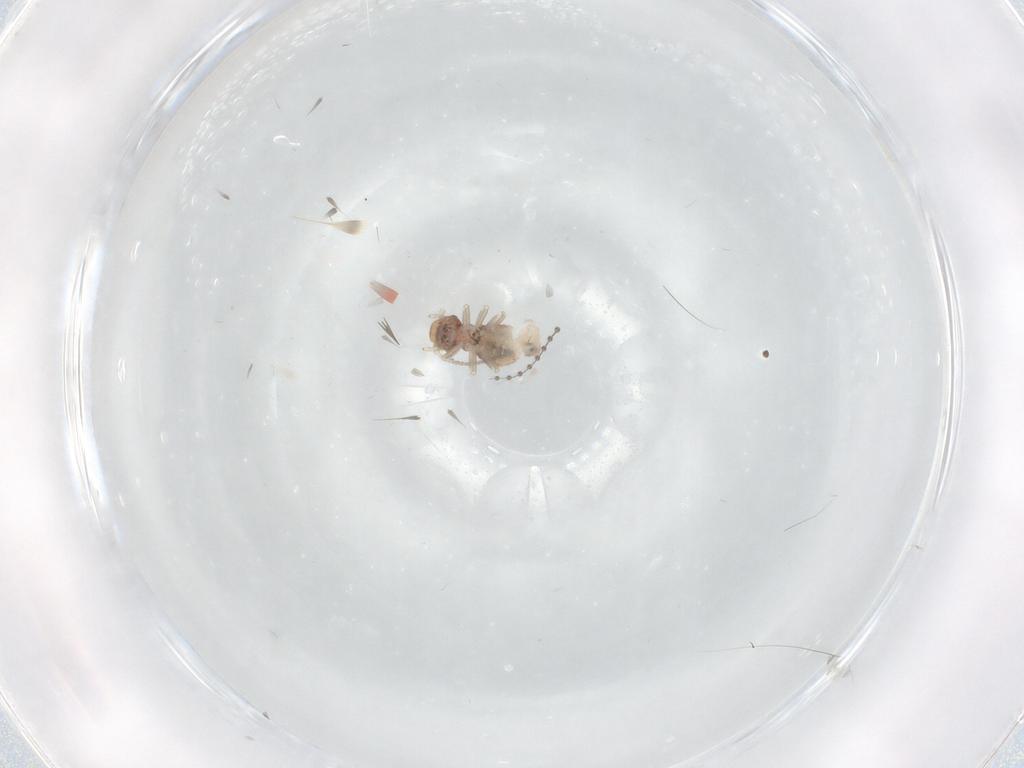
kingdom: Animalia
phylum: Arthropoda
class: Insecta
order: Psocodea
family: Caeciliusidae
